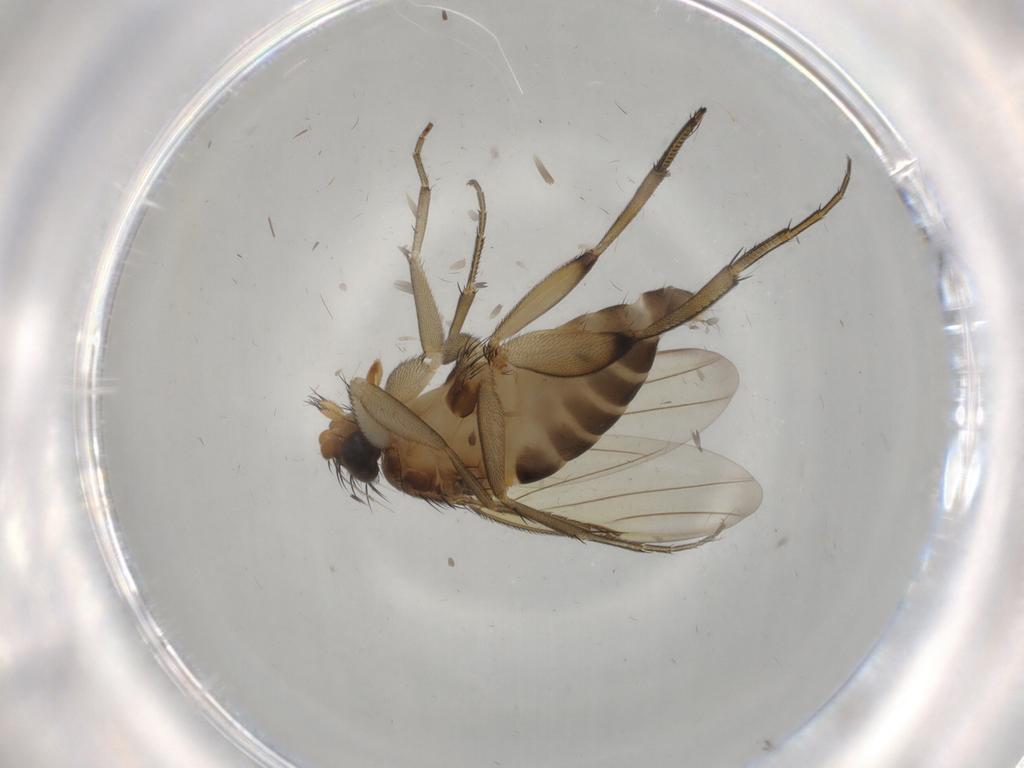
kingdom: Animalia
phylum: Arthropoda
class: Insecta
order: Diptera
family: Phoridae
